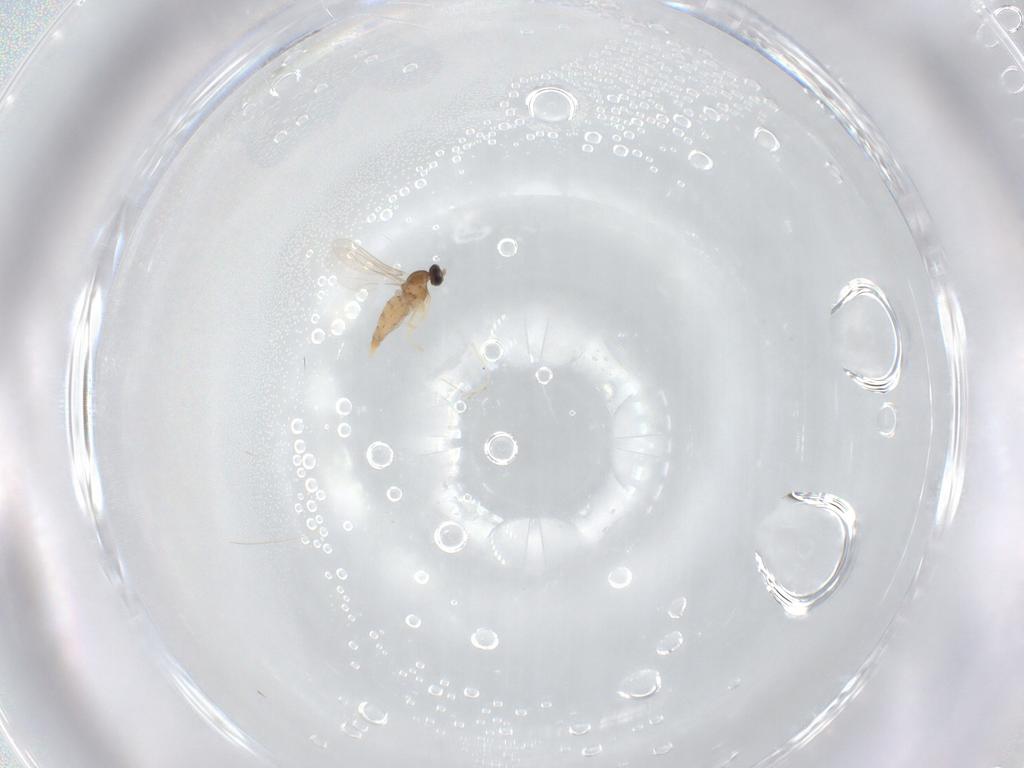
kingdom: Animalia
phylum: Arthropoda
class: Insecta
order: Diptera
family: Cecidomyiidae
